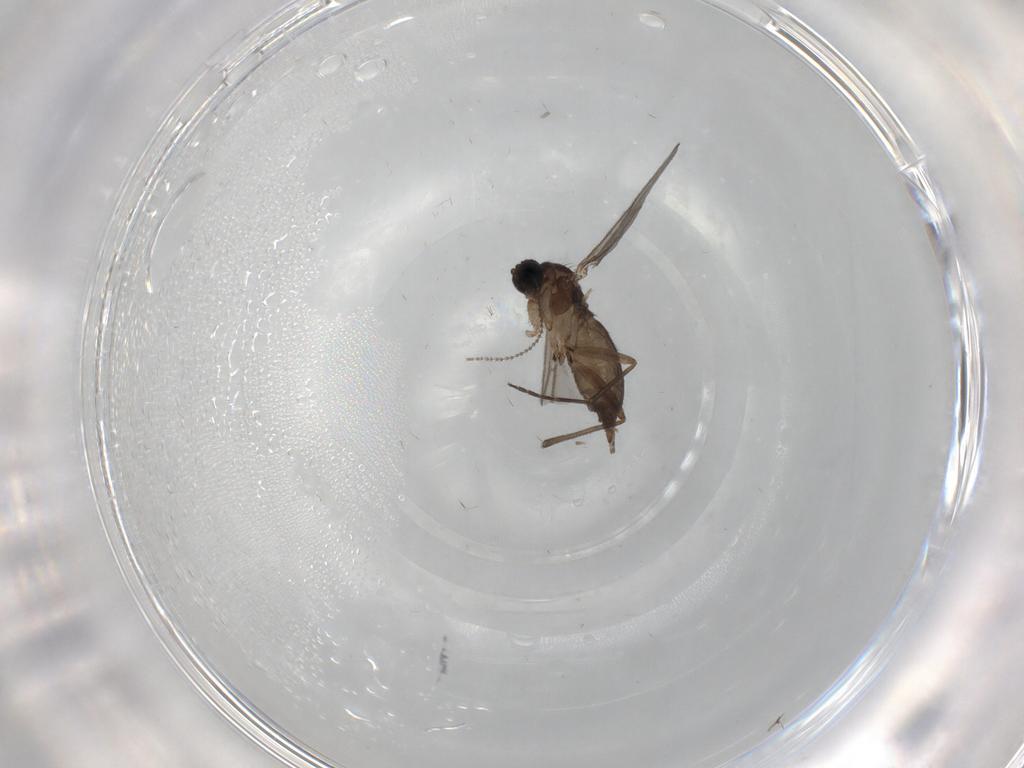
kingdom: Animalia
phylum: Arthropoda
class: Insecta
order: Diptera
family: Sciaridae
